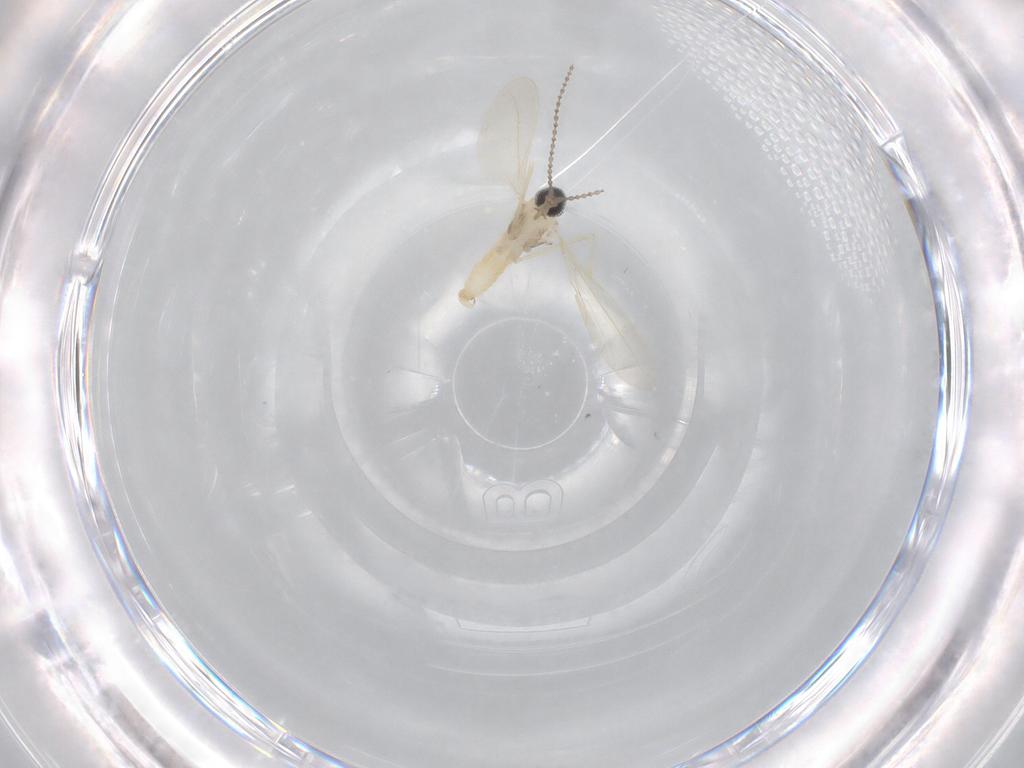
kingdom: Animalia
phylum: Arthropoda
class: Insecta
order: Diptera
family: Cecidomyiidae
